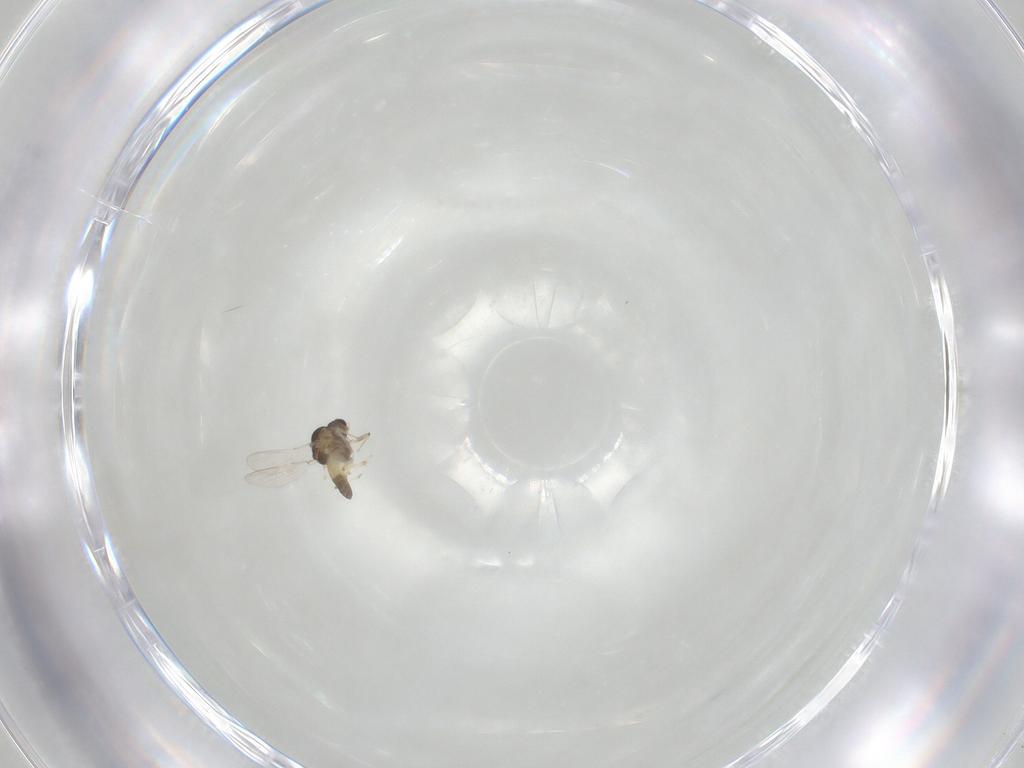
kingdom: Animalia
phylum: Arthropoda
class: Insecta
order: Diptera
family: Chironomidae
